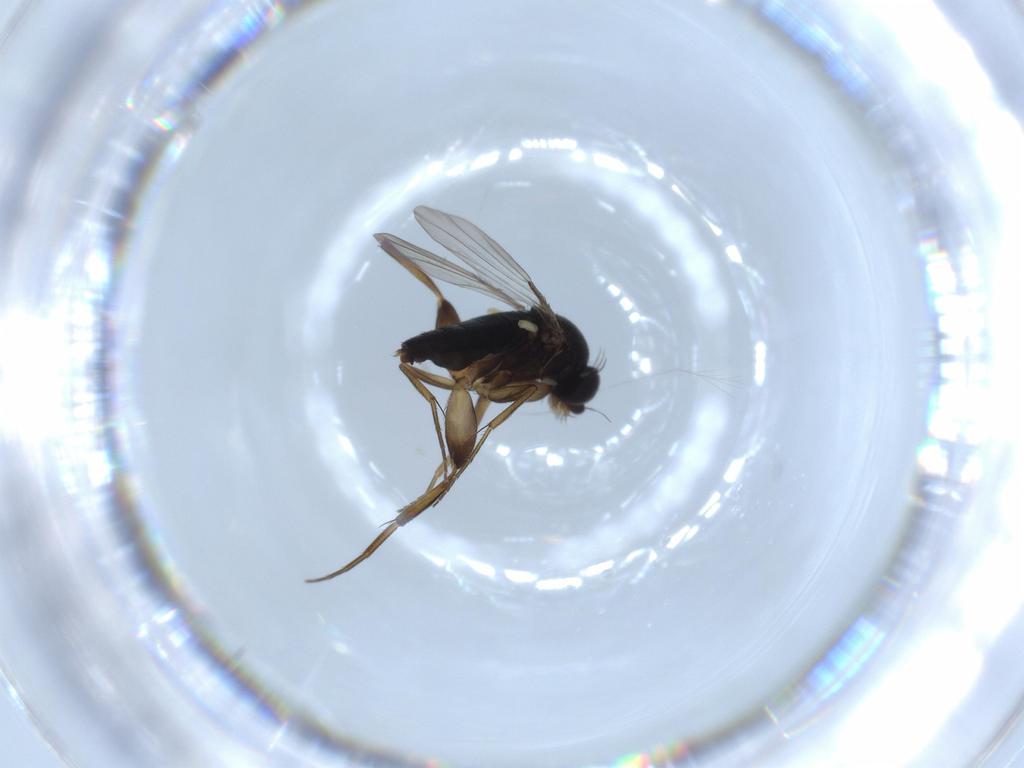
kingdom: Animalia
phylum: Arthropoda
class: Insecta
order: Diptera
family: Phoridae
